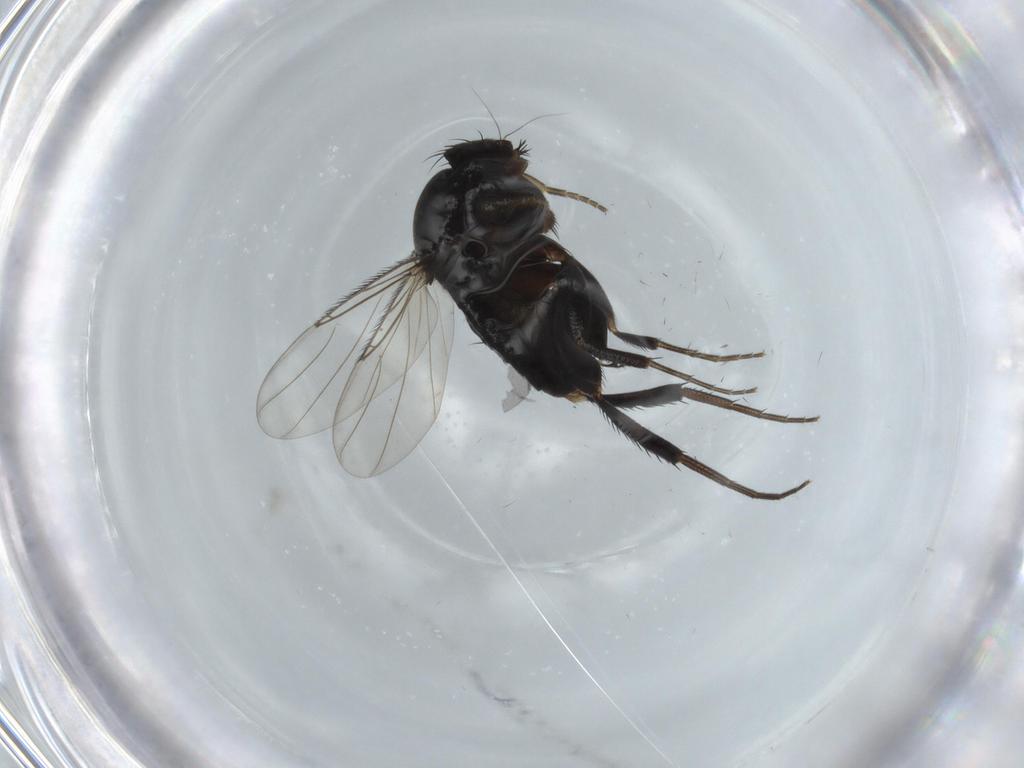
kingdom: Animalia
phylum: Arthropoda
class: Insecta
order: Diptera
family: Phoridae
